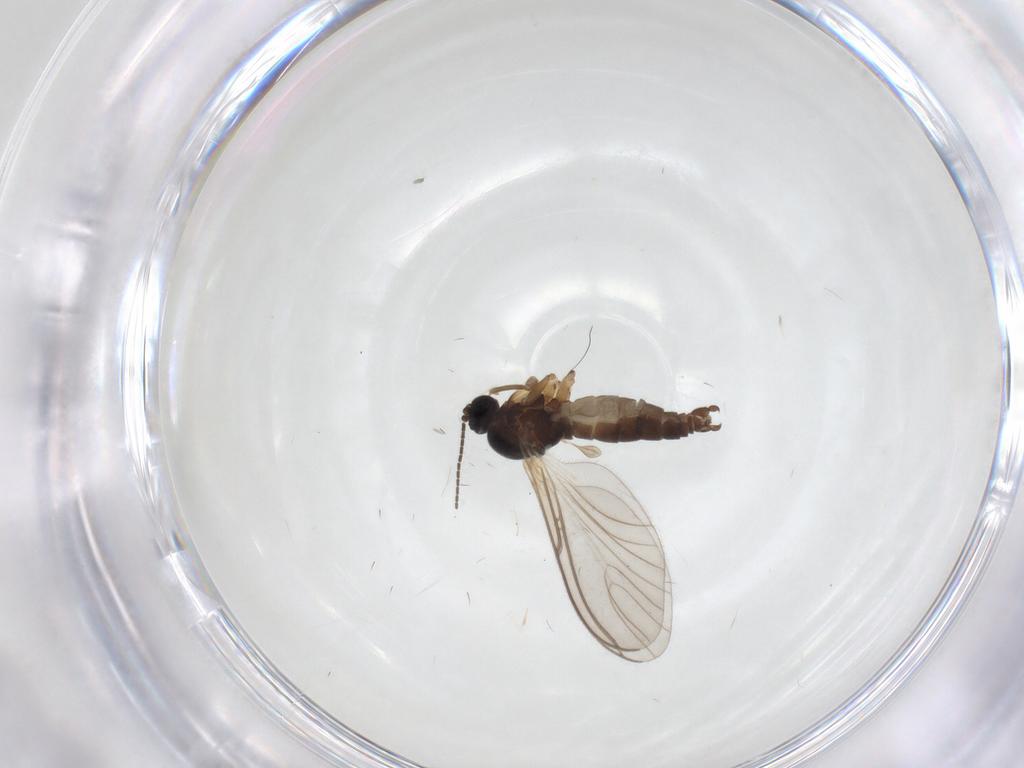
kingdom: Animalia
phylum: Arthropoda
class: Insecta
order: Diptera
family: Sciaridae
